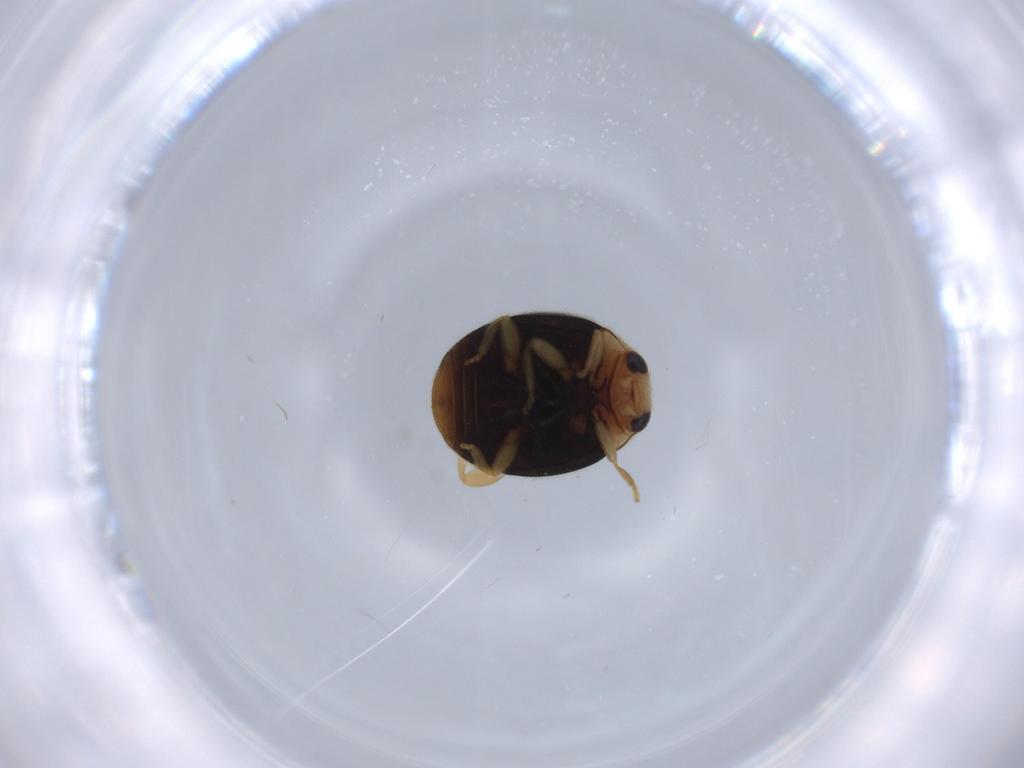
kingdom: Animalia
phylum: Arthropoda
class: Insecta
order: Coleoptera
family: Coccinellidae
